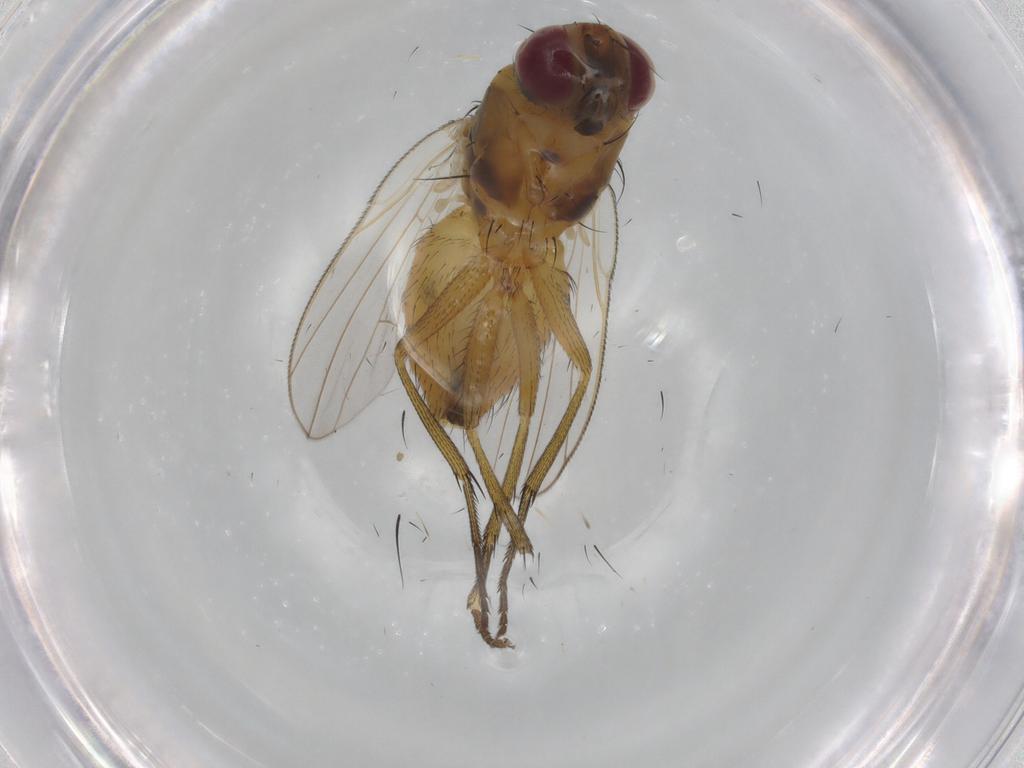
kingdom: Animalia
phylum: Arthropoda
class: Insecta
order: Diptera
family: Muscidae
